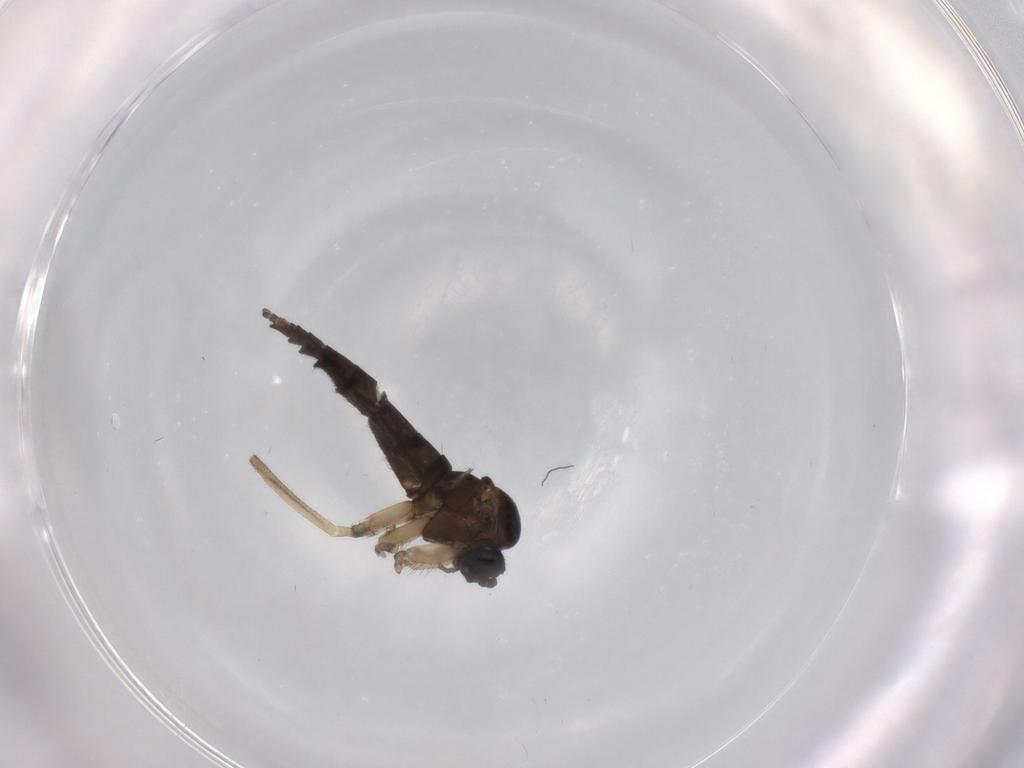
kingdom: Animalia
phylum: Arthropoda
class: Insecta
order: Diptera
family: Sciaridae
